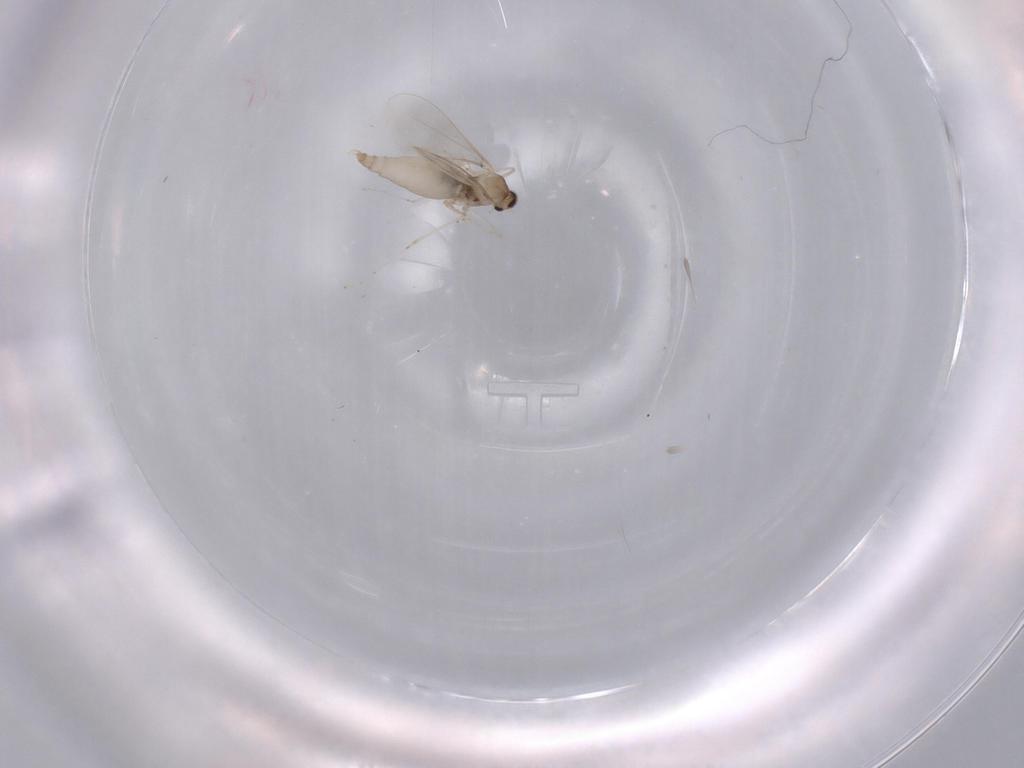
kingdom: Animalia
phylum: Arthropoda
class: Insecta
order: Diptera
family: Cecidomyiidae
